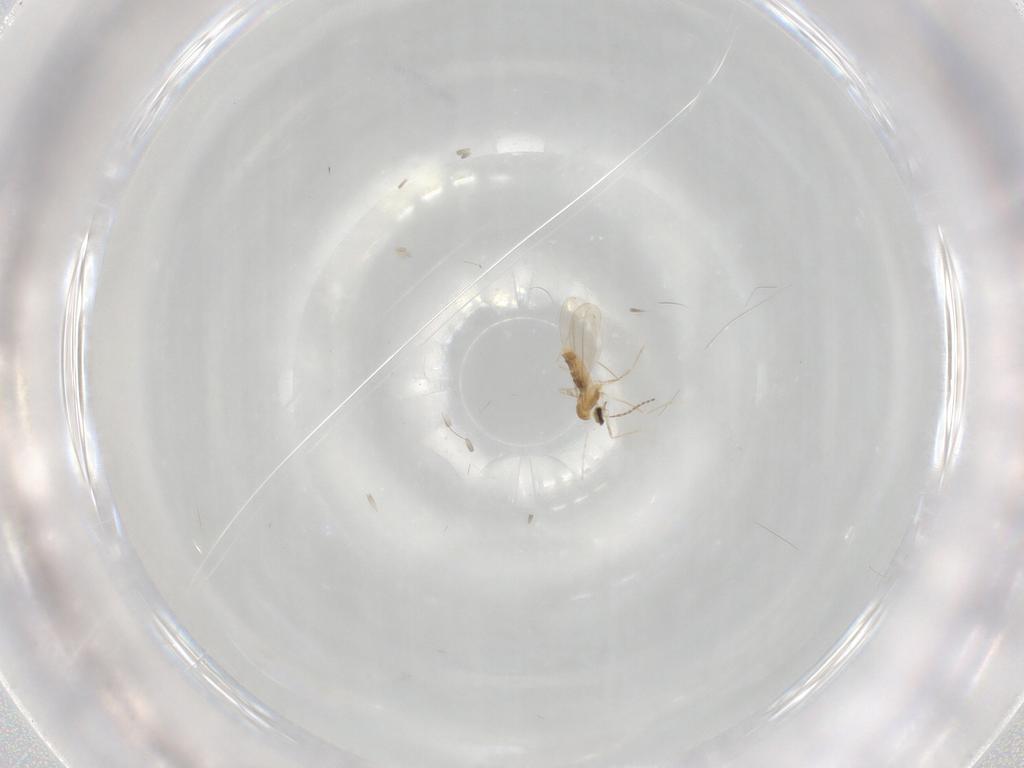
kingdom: Animalia
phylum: Arthropoda
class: Insecta
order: Diptera
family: Cecidomyiidae
